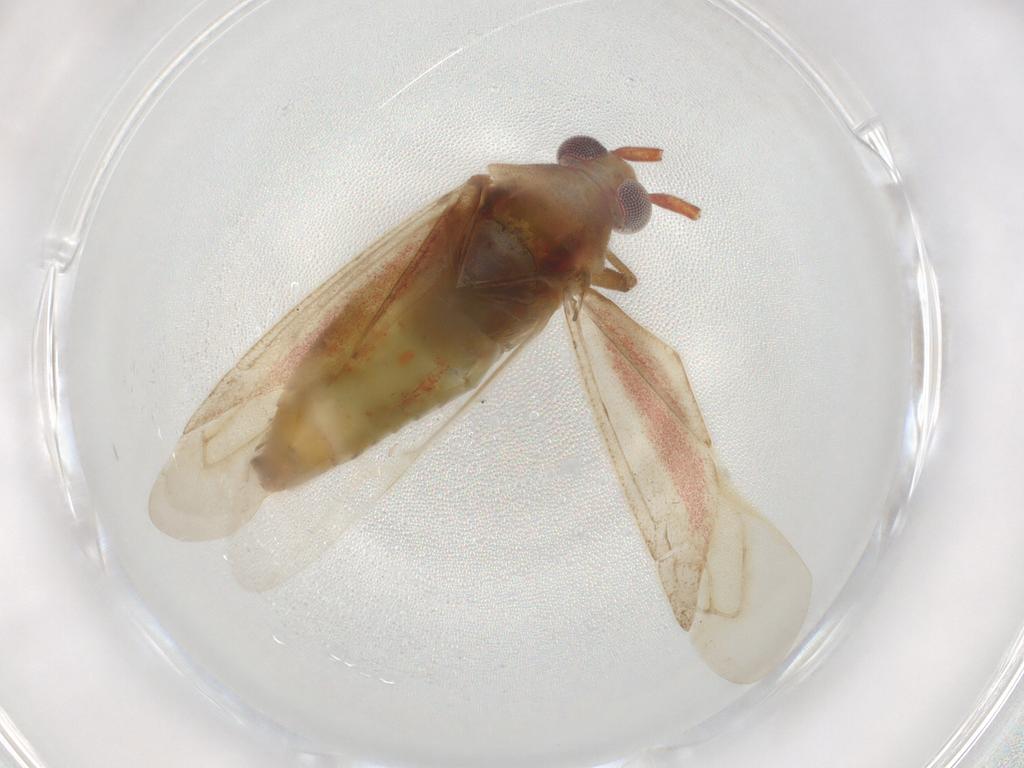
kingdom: Animalia
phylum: Arthropoda
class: Insecta
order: Hemiptera
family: Miridae
